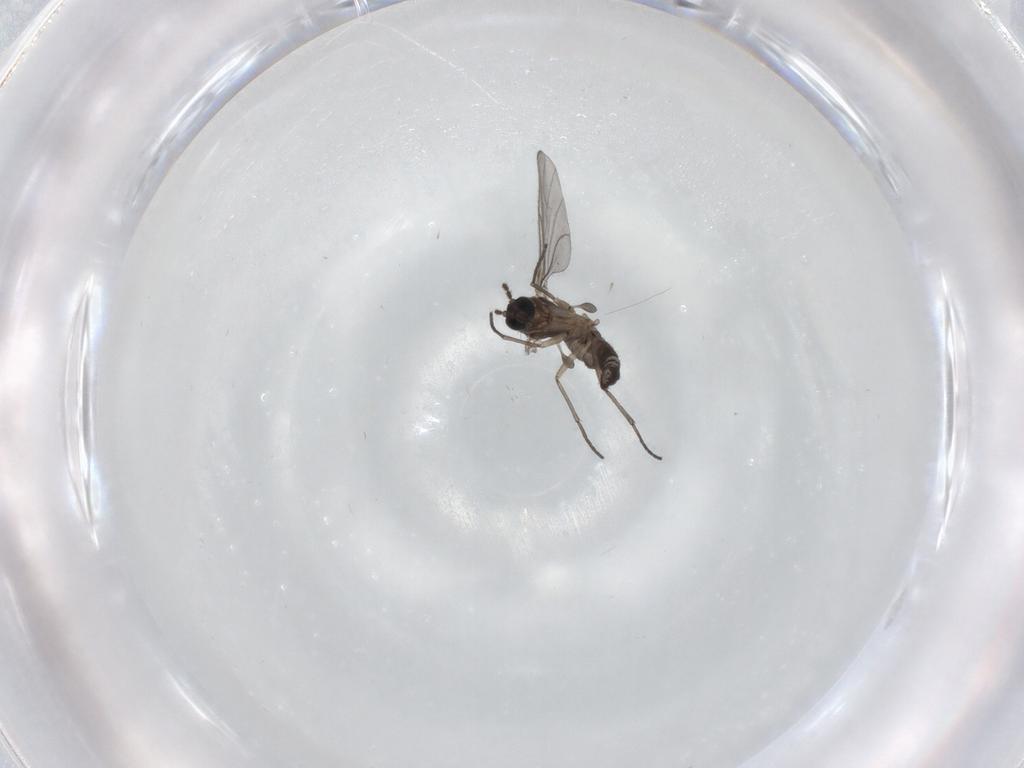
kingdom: Animalia
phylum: Arthropoda
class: Insecta
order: Diptera
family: Sciaridae
